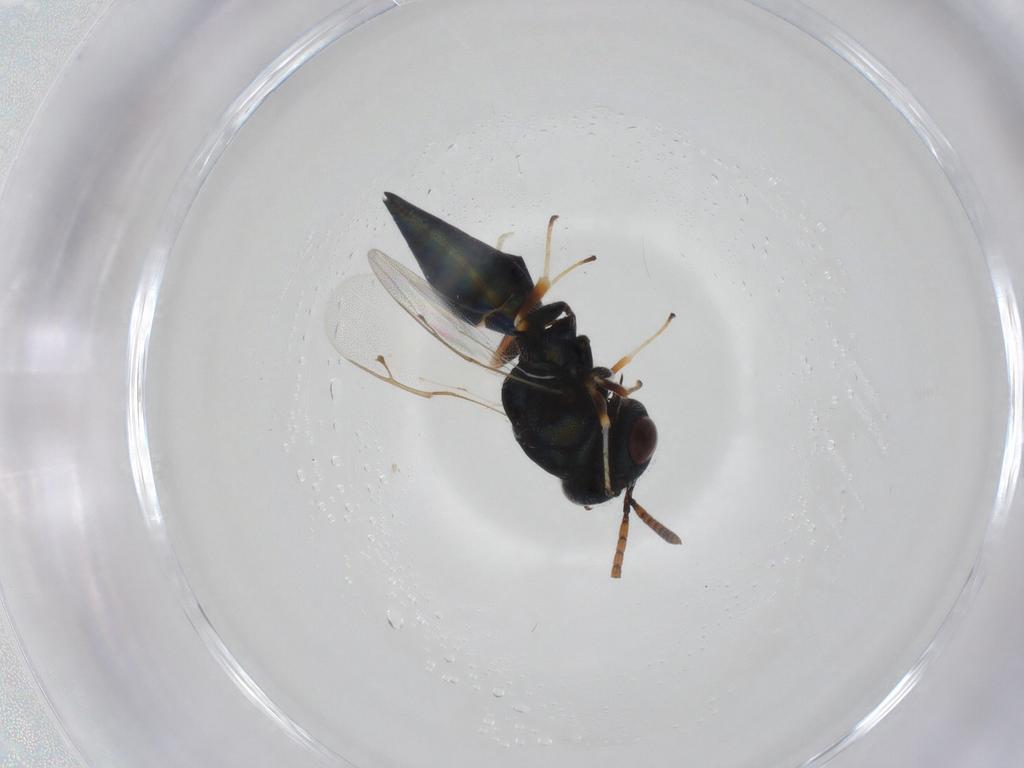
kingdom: Animalia
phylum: Arthropoda
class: Insecta
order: Hymenoptera
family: Pteromalidae
